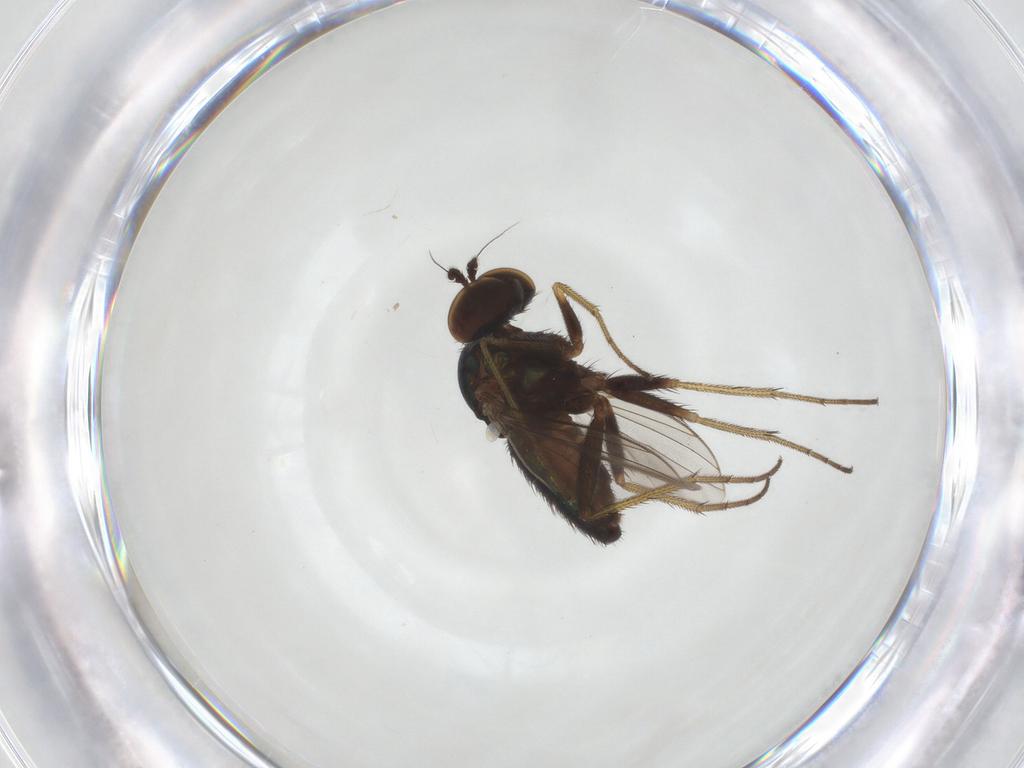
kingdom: Animalia
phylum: Arthropoda
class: Insecta
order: Diptera
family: Dolichopodidae
